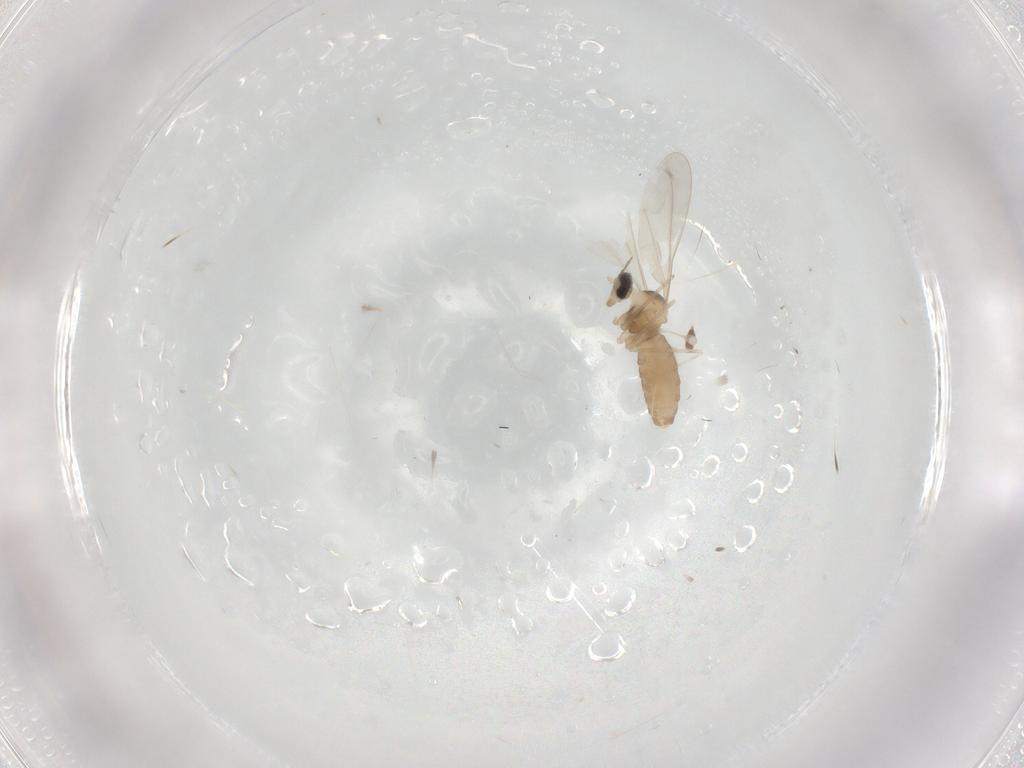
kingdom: Animalia
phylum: Arthropoda
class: Insecta
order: Diptera
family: Cecidomyiidae
